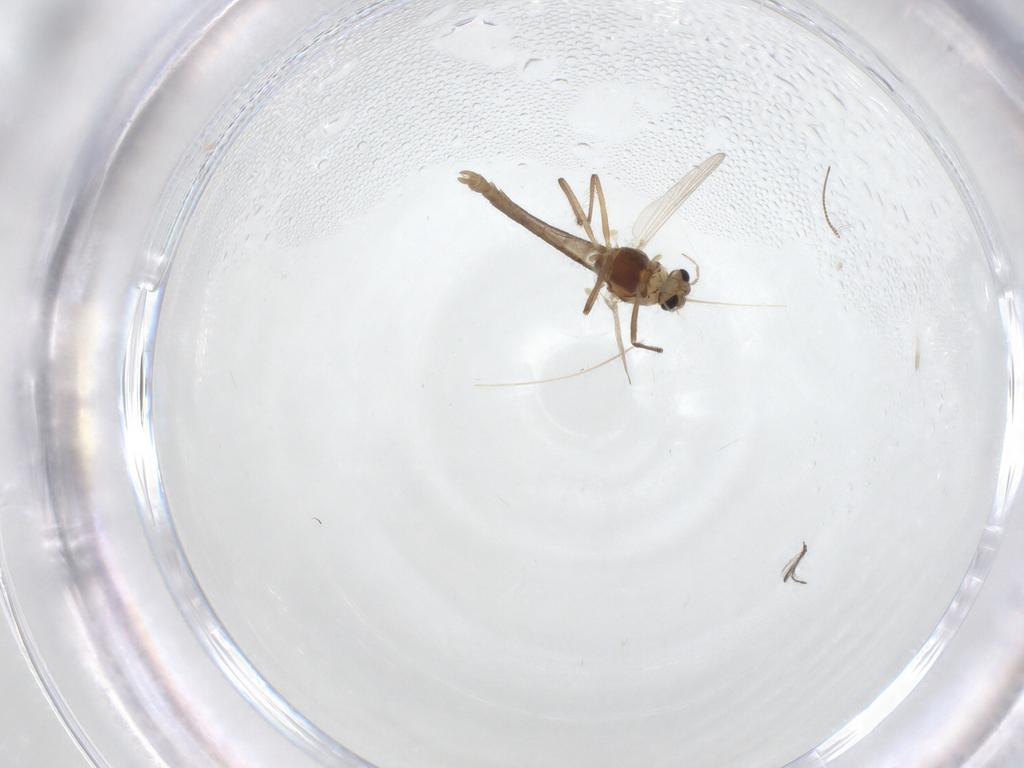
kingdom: Animalia
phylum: Arthropoda
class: Insecta
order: Diptera
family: Chironomidae
